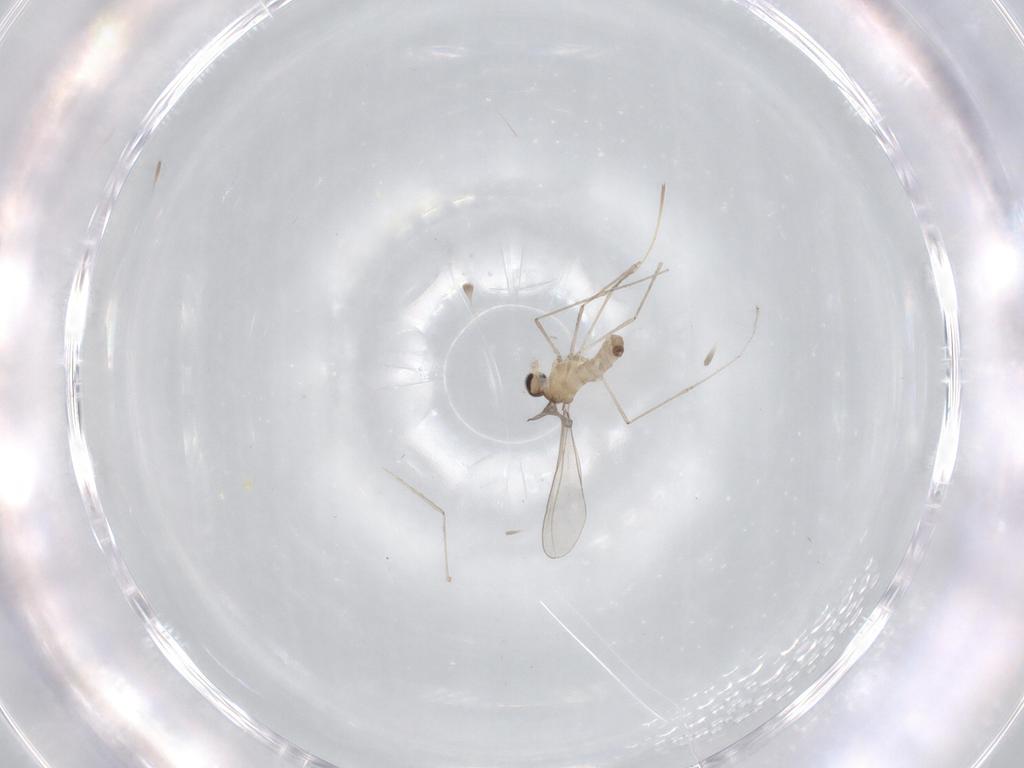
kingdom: Animalia
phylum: Arthropoda
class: Insecta
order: Diptera
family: Cecidomyiidae
